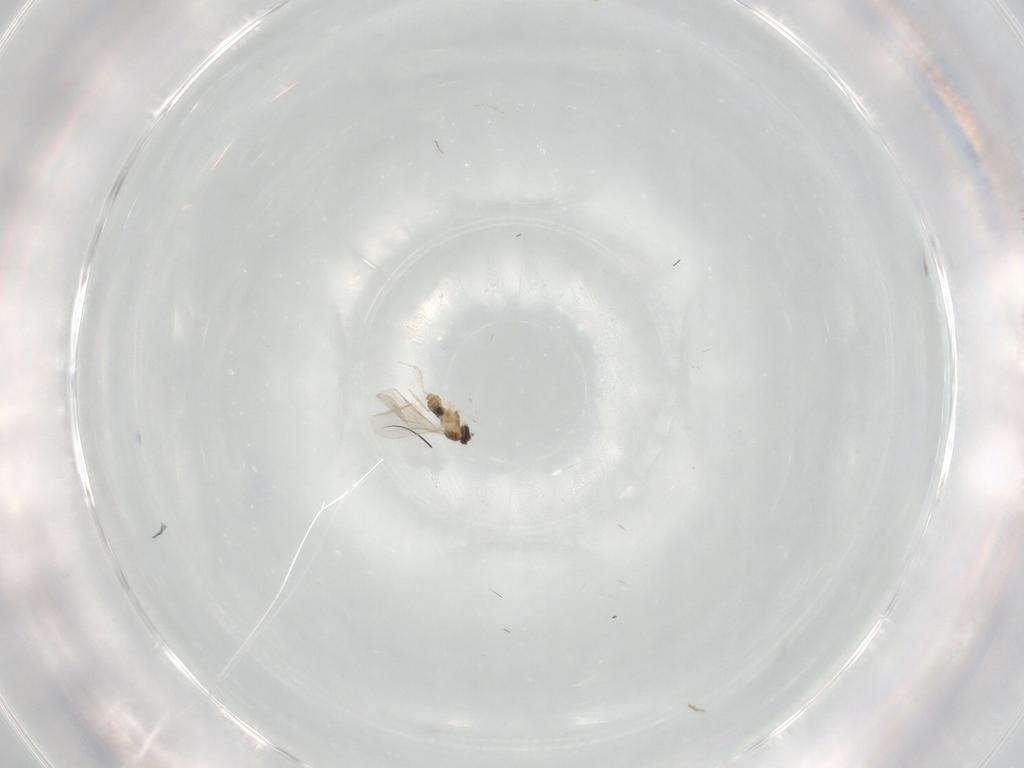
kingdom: Animalia
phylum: Arthropoda
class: Insecta
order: Diptera
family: Cecidomyiidae
